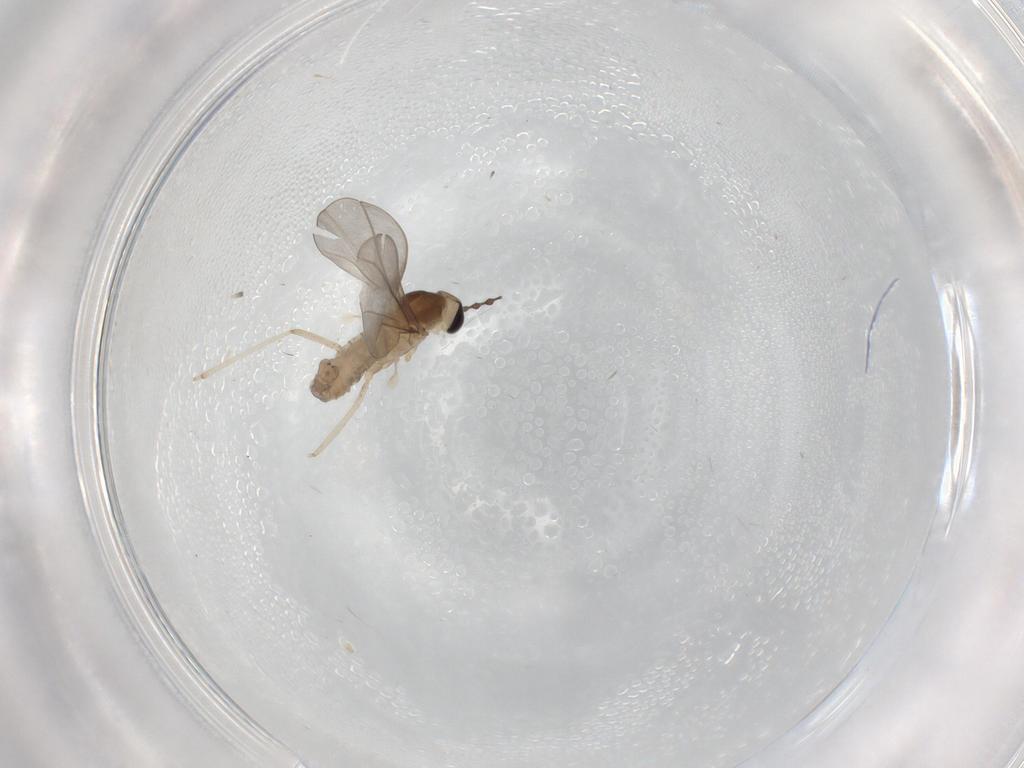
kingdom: Animalia
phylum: Arthropoda
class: Insecta
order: Diptera
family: Cecidomyiidae
